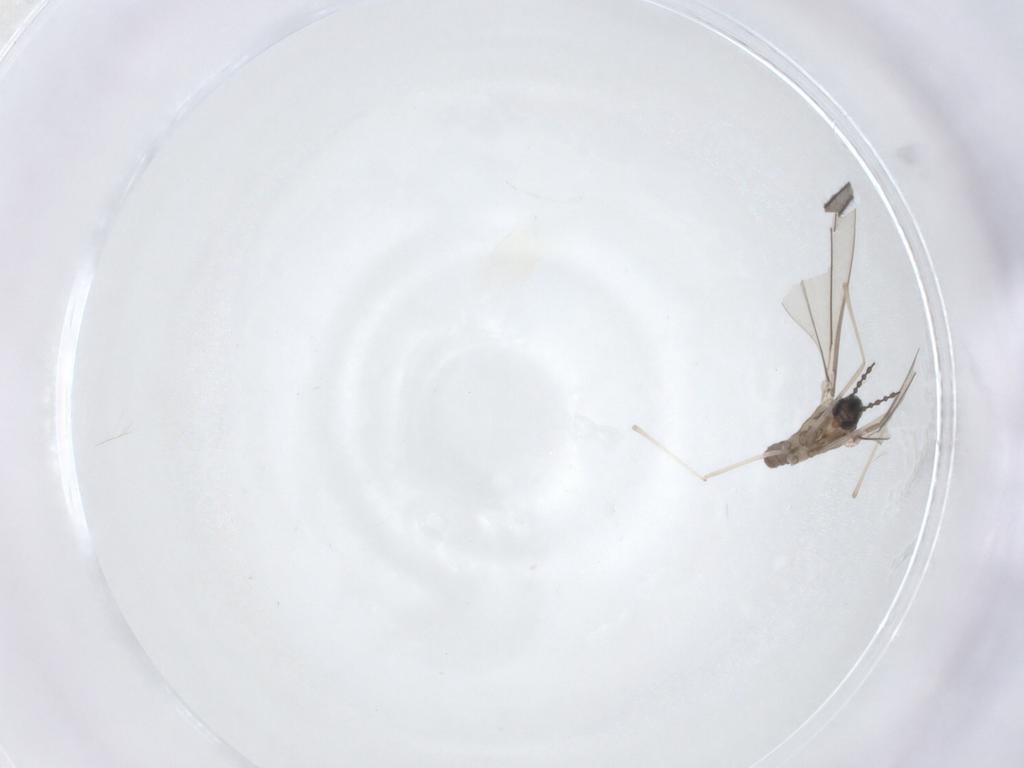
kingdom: Animalia
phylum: Arthropoda
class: Insecta
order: Diptera
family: Cecidomyiidae
